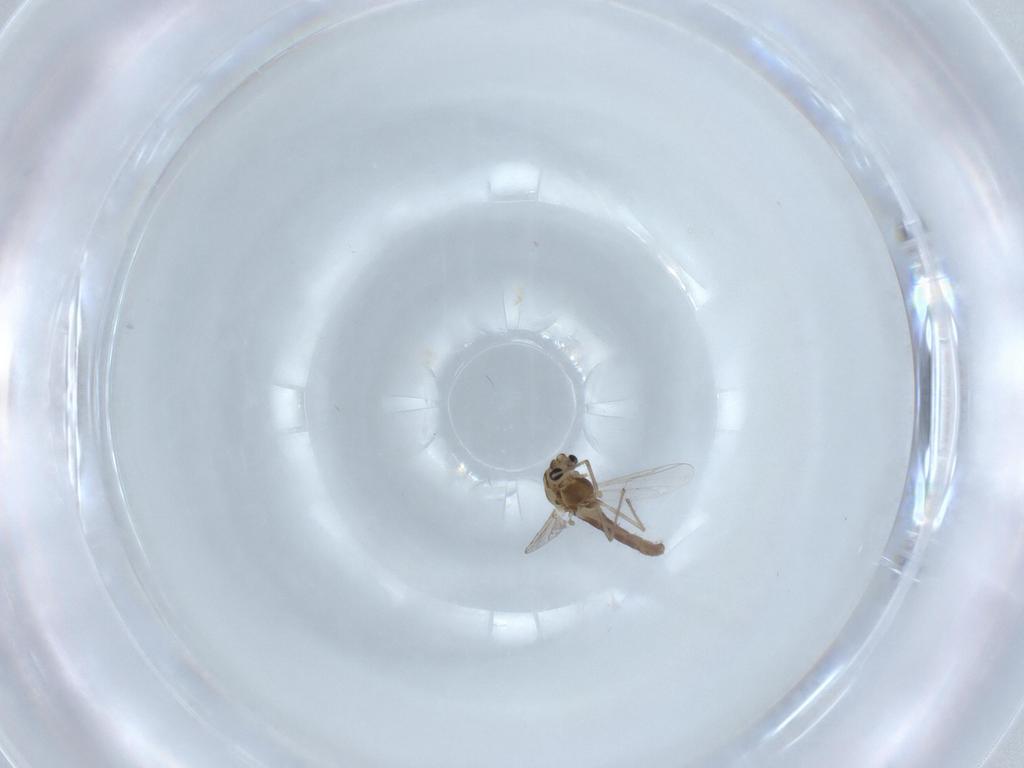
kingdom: Animalia
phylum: Arthropoda
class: Insecta
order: Diptera
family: Chironomidae
